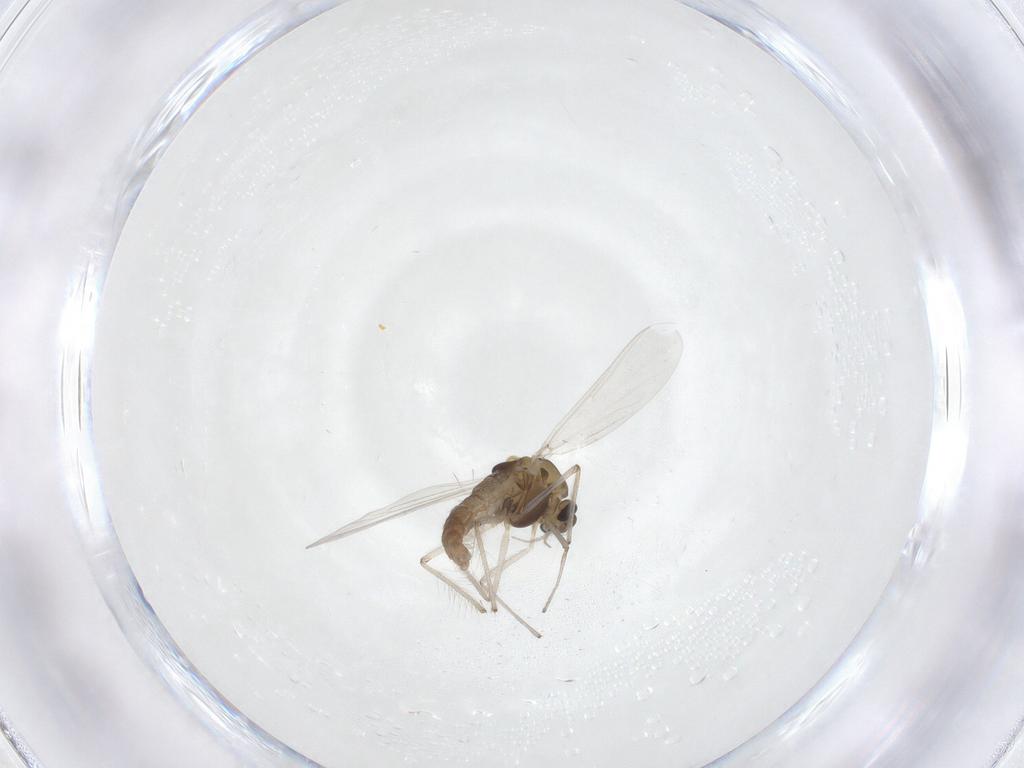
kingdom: Animalia
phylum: Arthropoda
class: Insecta
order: Diptera
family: Chironomidae
